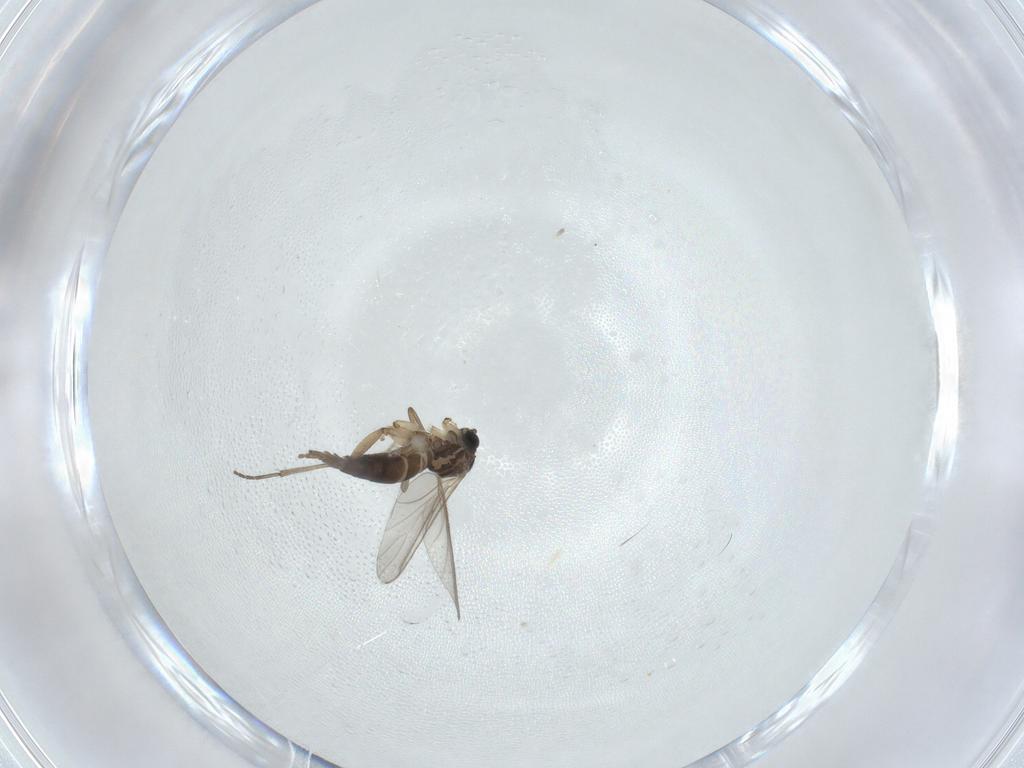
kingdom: Animalia
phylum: Arthropoda
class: Insecta
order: Diptera
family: Sciaridae
